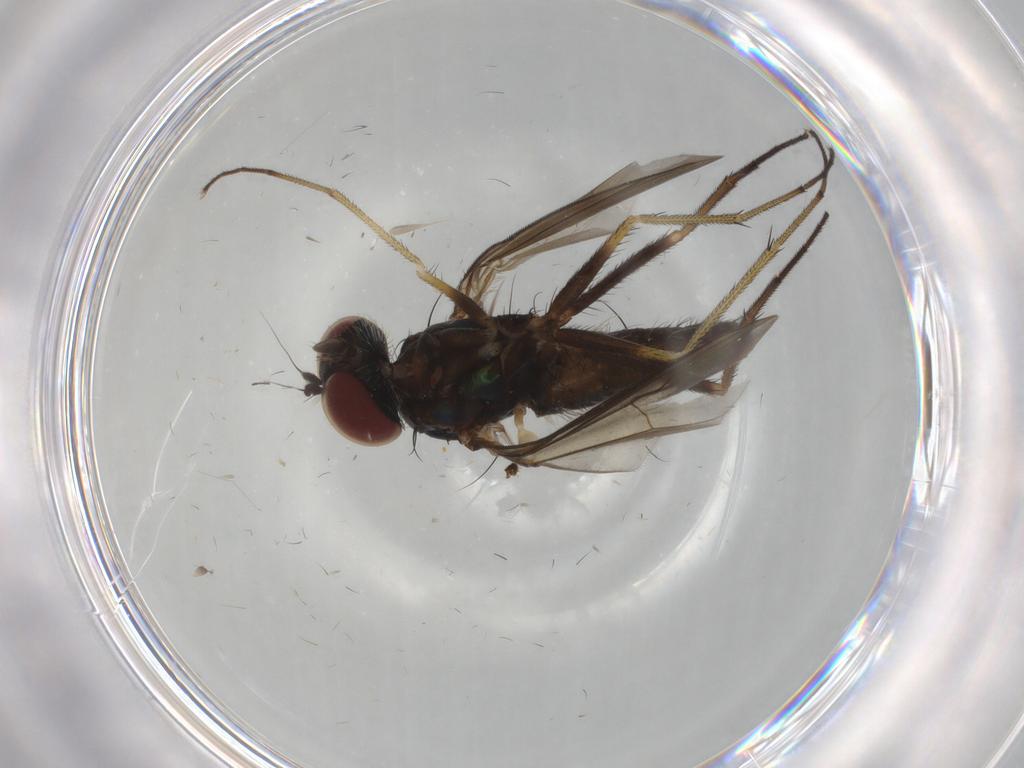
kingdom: Animalia
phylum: Arthropoda
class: Insecta
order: Diptera
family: Dolichopodidae
